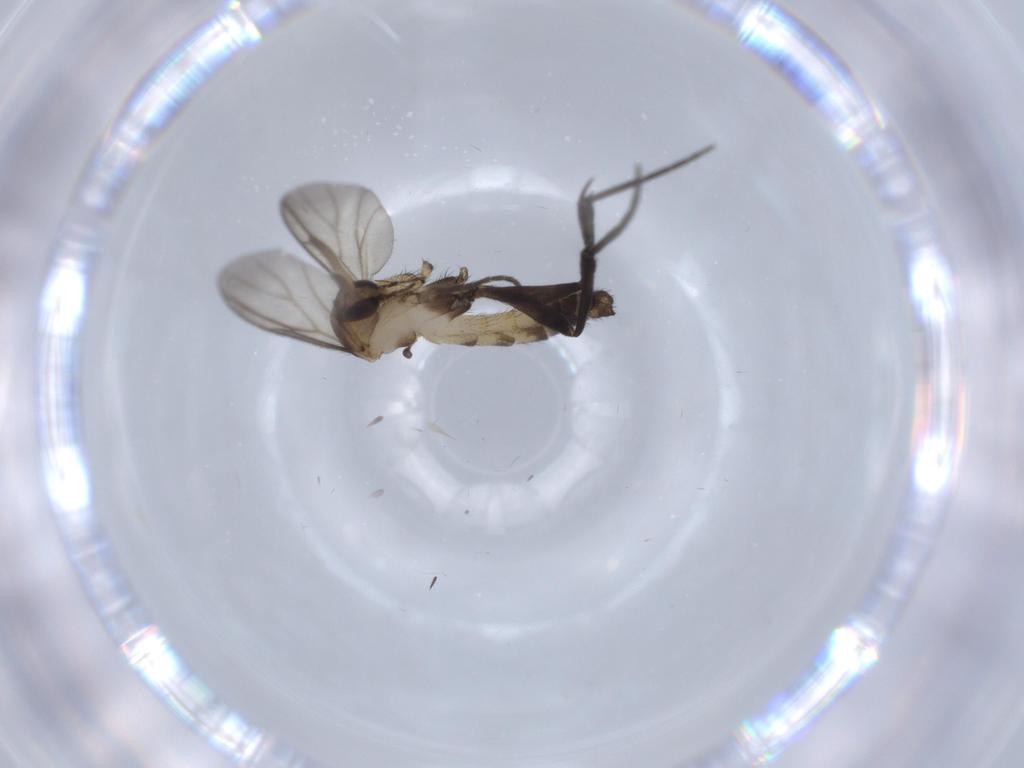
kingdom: Animalia
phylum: Arthropoda
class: Insecta
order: Diptera
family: Mycetophilidae
